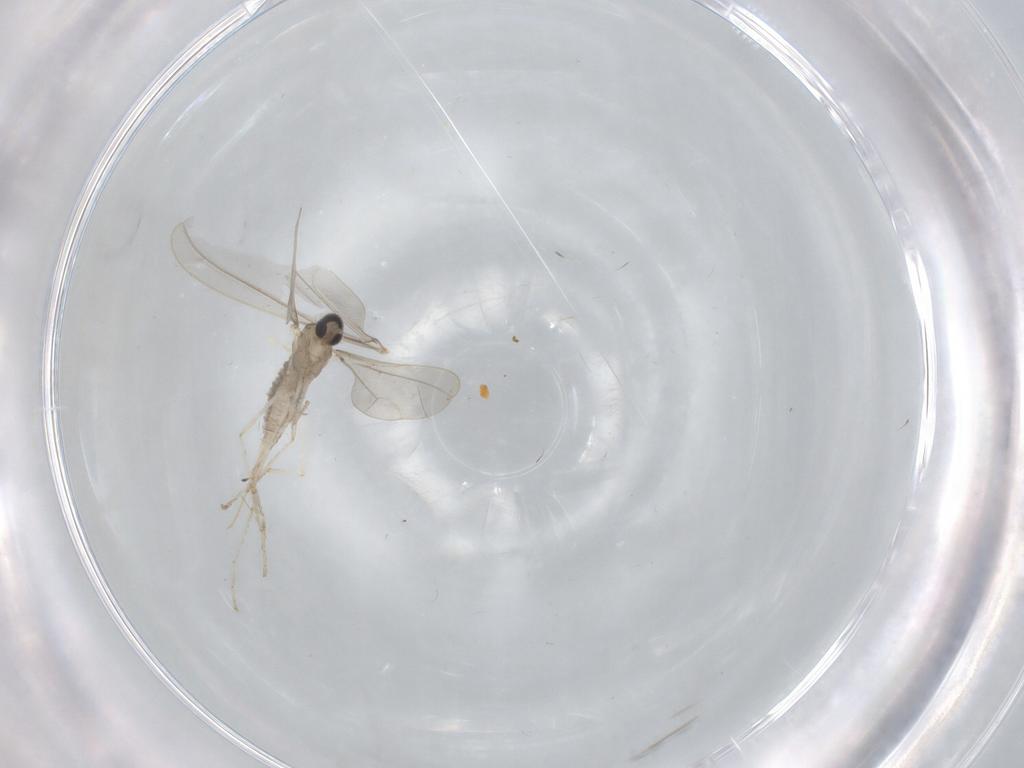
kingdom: Animalia
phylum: Arthropoda
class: Insecta
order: Diptera
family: Cecidomyiidae
